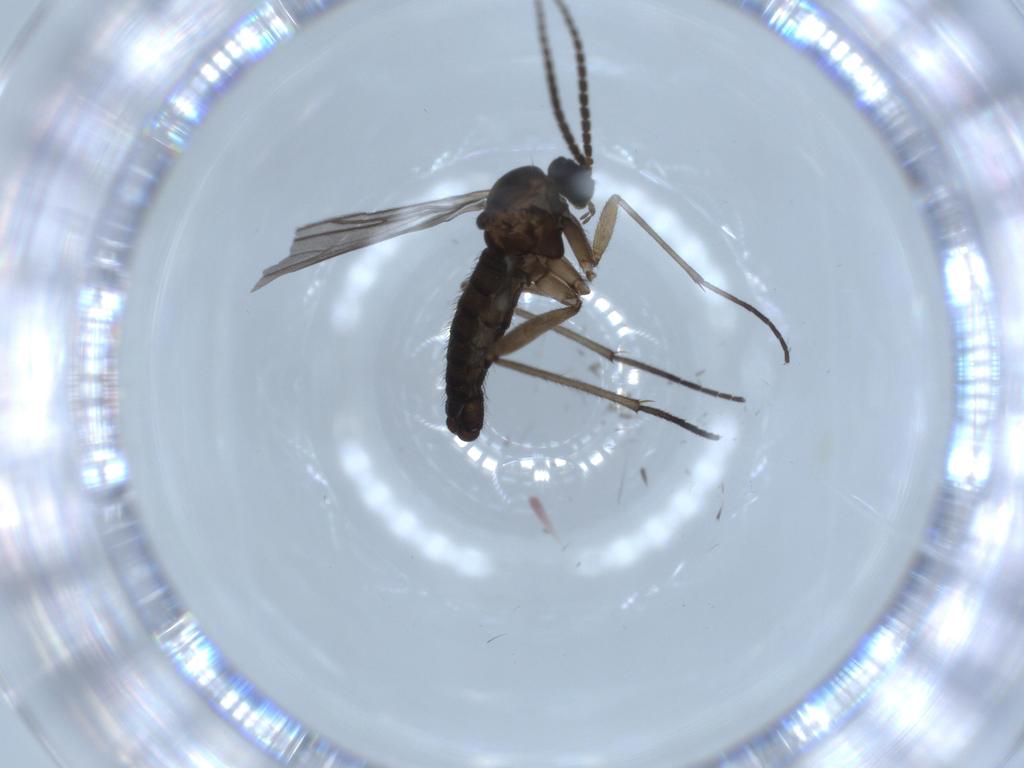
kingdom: Animalia
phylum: Arthropoda
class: Insecta
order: Diptera
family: Sciaridae
